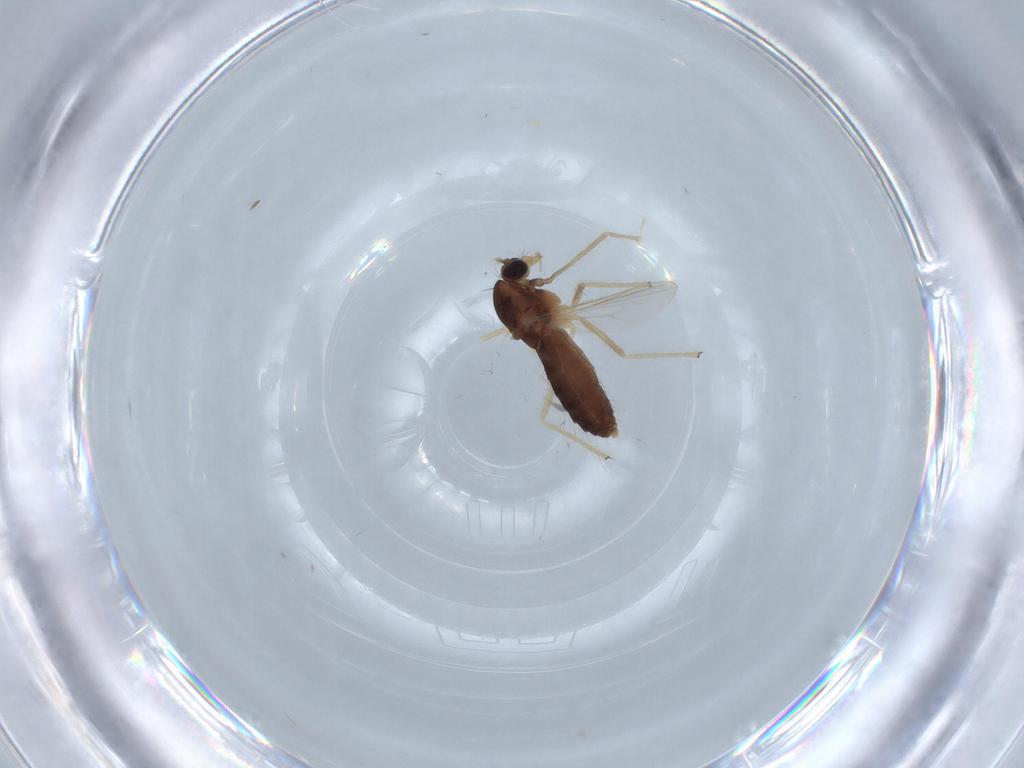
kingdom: Animalia
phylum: Arthropoda
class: Insecta
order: Diptera
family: Chironomidae
